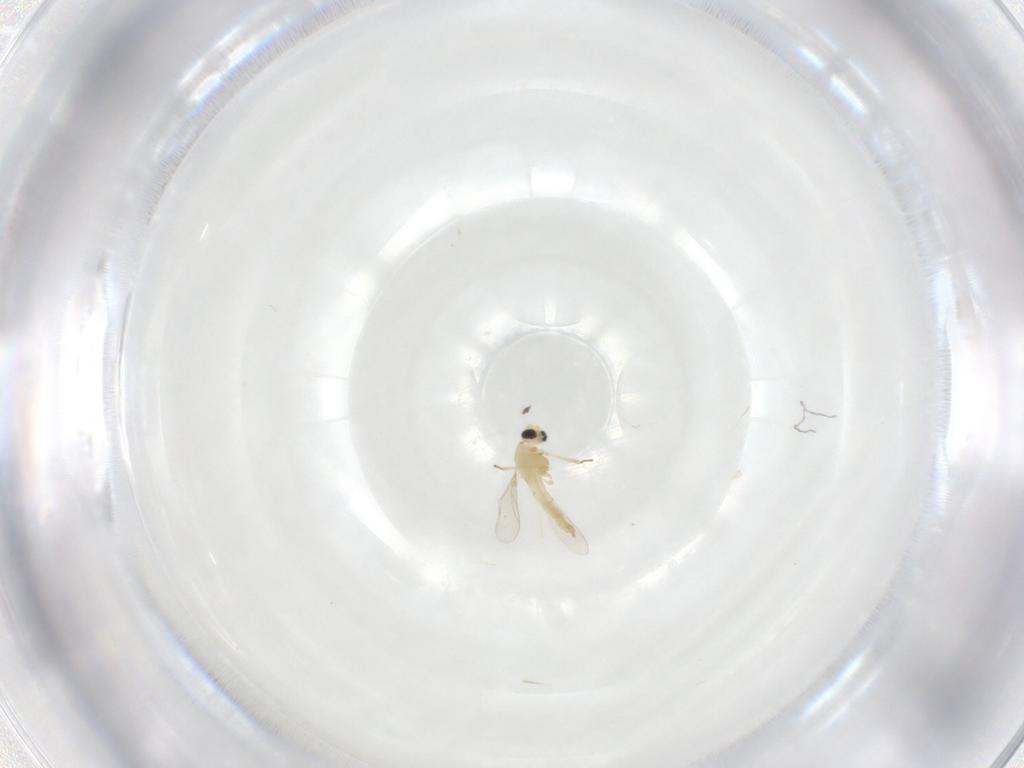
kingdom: Animalia
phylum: Arthropoda
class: Insecta
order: Diptera
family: Chironomidae
